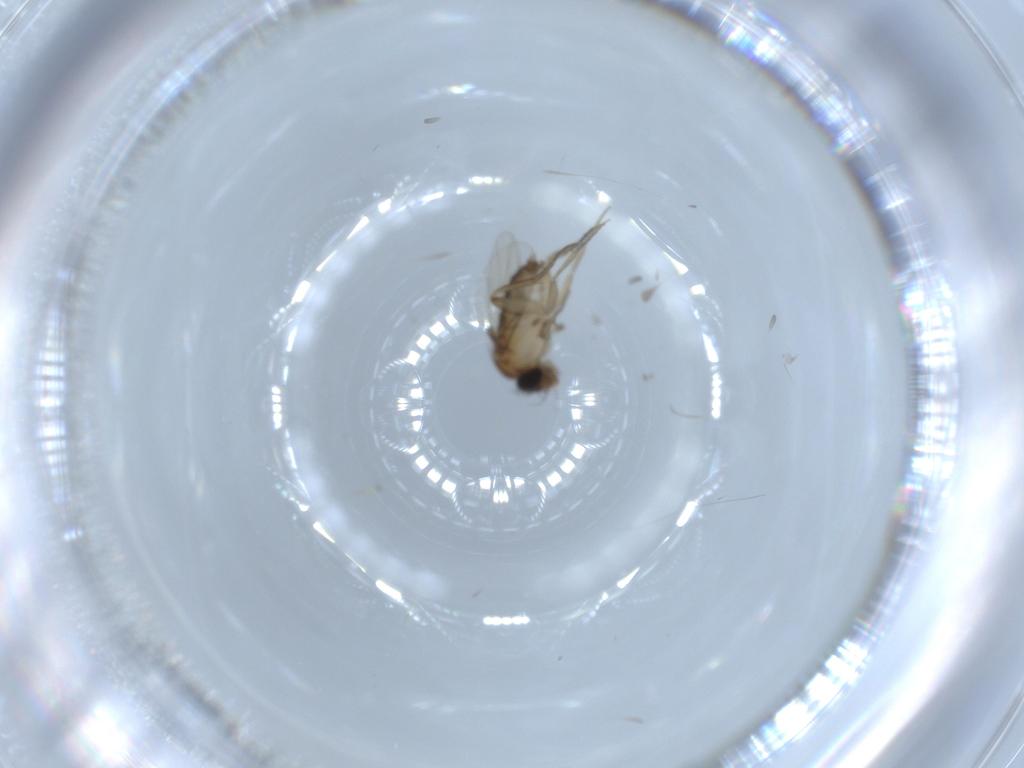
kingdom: Animalia
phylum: Arthropoda
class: Insecta
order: Diptera
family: Phoridae
